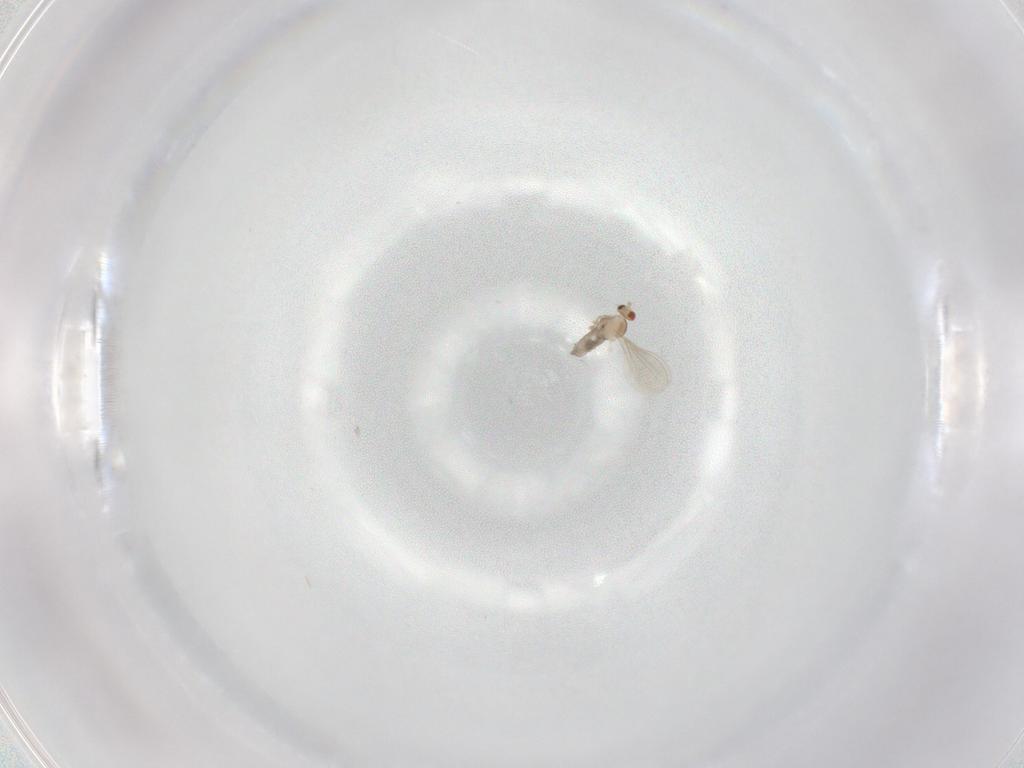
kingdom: Animalia
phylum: Arthropoda
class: Insecta
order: Diptera
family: Cecidomyiidae
